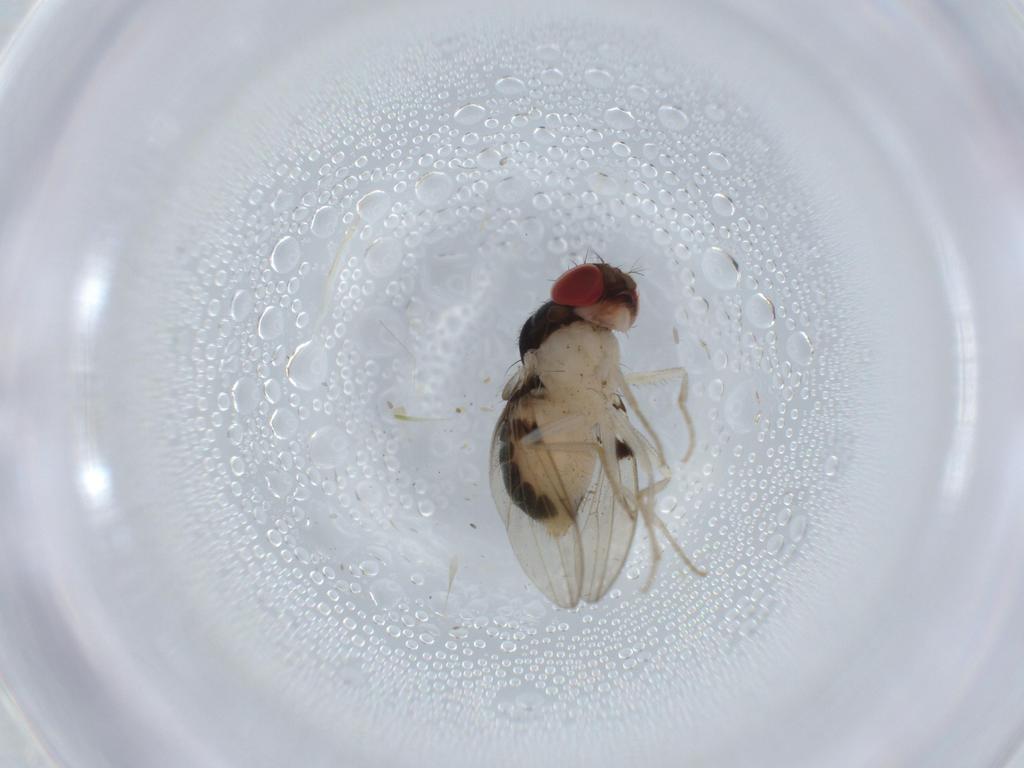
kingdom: Animalia
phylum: Arthropoda
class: Insecta
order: Diptera
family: Drosophilidae
